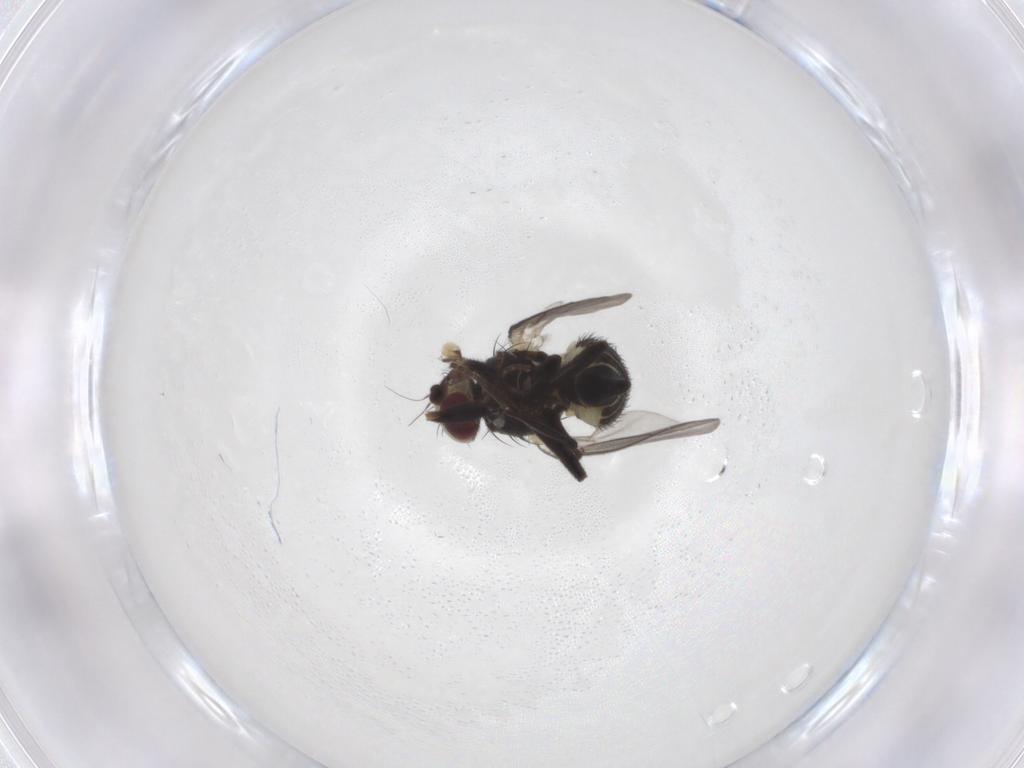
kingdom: Animalia
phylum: Arthropoda
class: Insecta
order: Diptera
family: Agromyzidae
